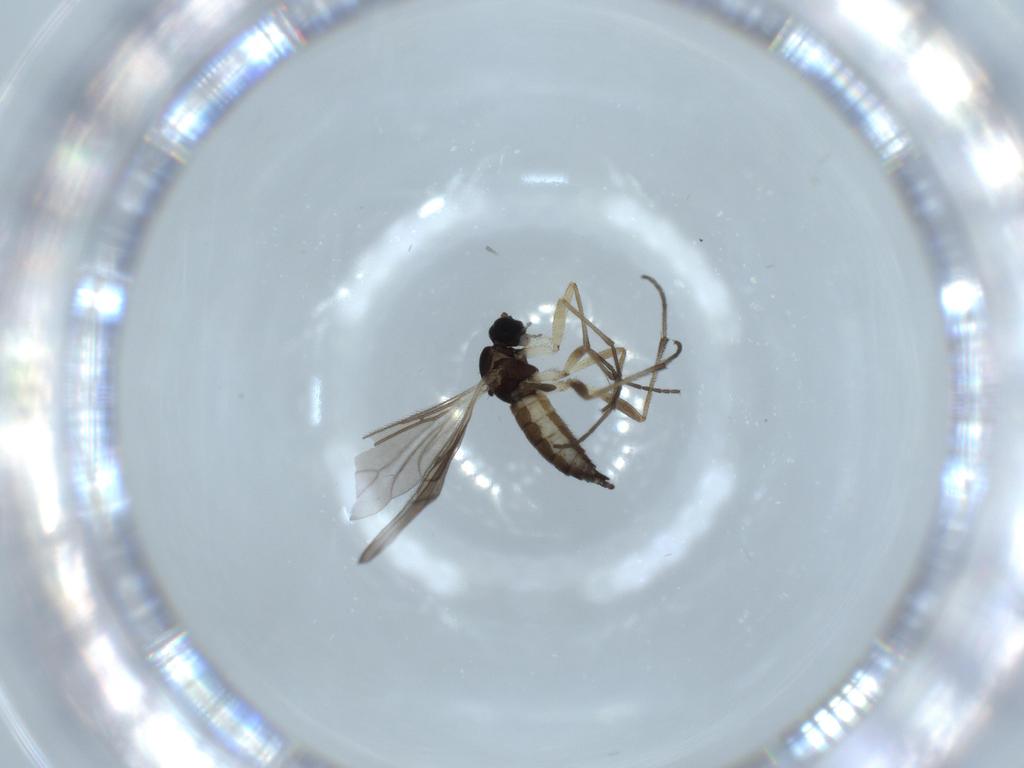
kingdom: Animalia
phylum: Arthropoda
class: Insecta
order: Diptera
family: Sciaridae
